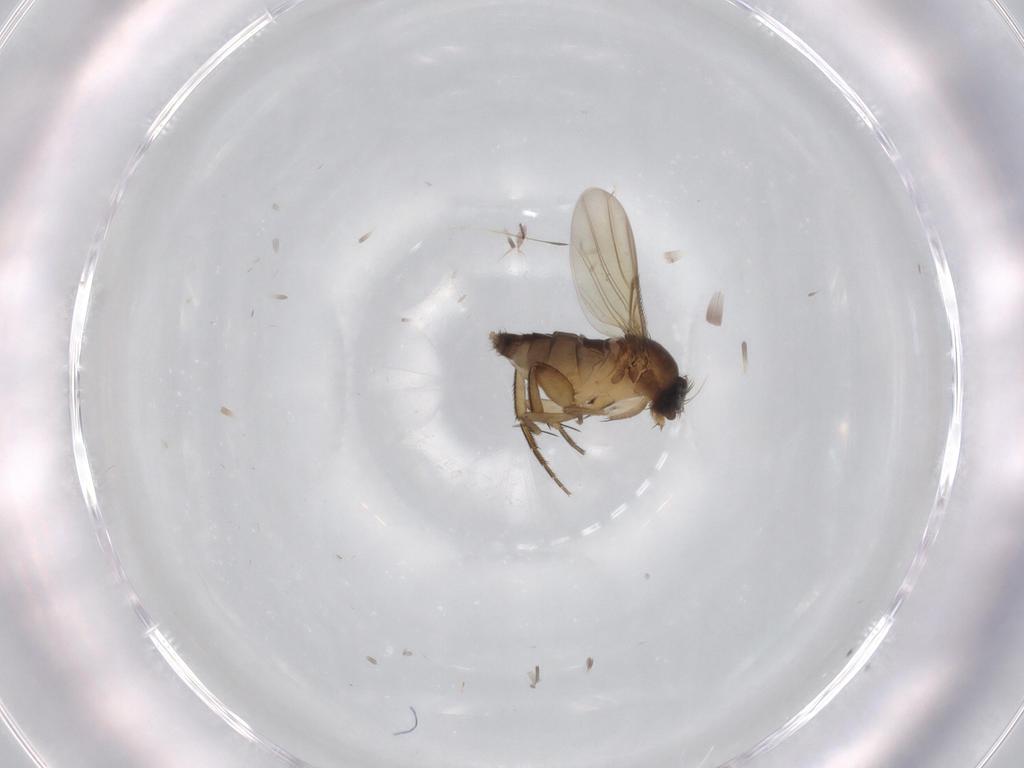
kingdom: Animalia
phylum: Arthropoda
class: Insecta
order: Diptera
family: Phoridae
